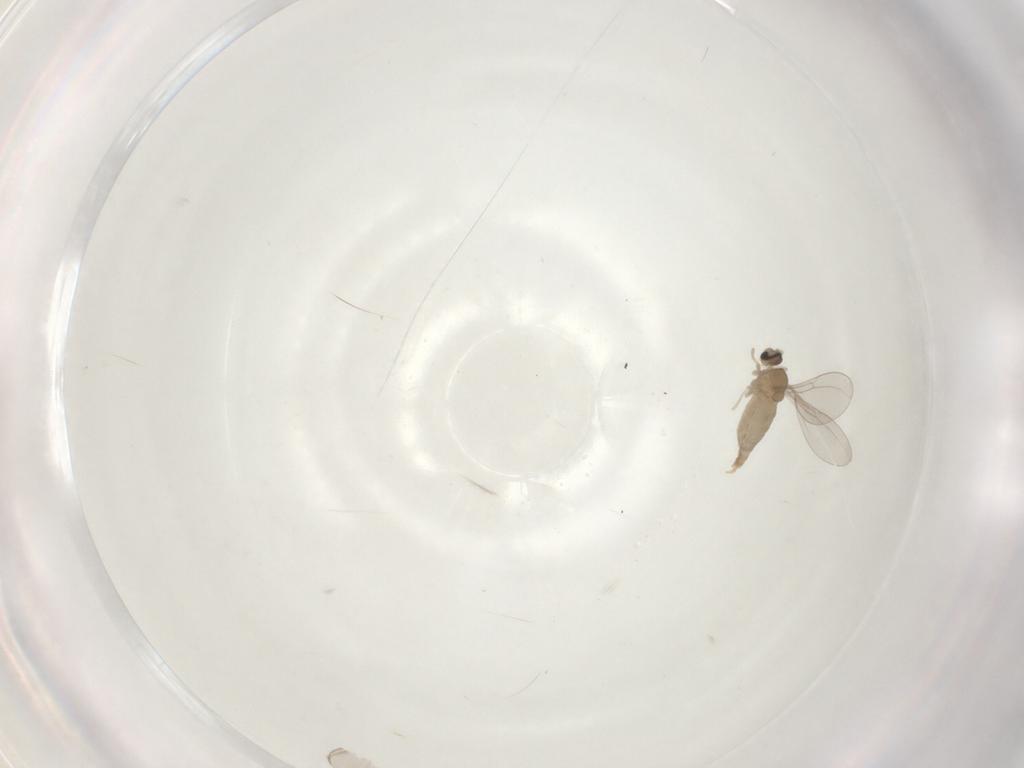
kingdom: Animalia
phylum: Arthropoda
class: Insecta
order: Diptera
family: Cecidomyiidae
